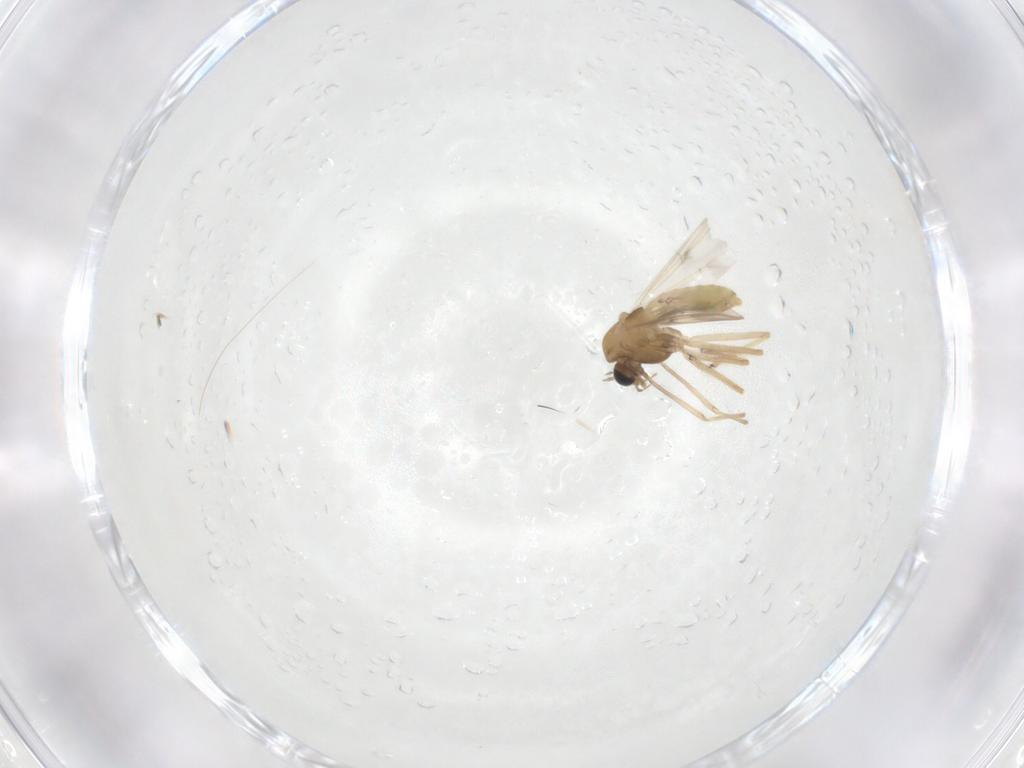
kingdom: Animalia
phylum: Arthropoda
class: Insecta
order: Diptera
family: Chironomidae
